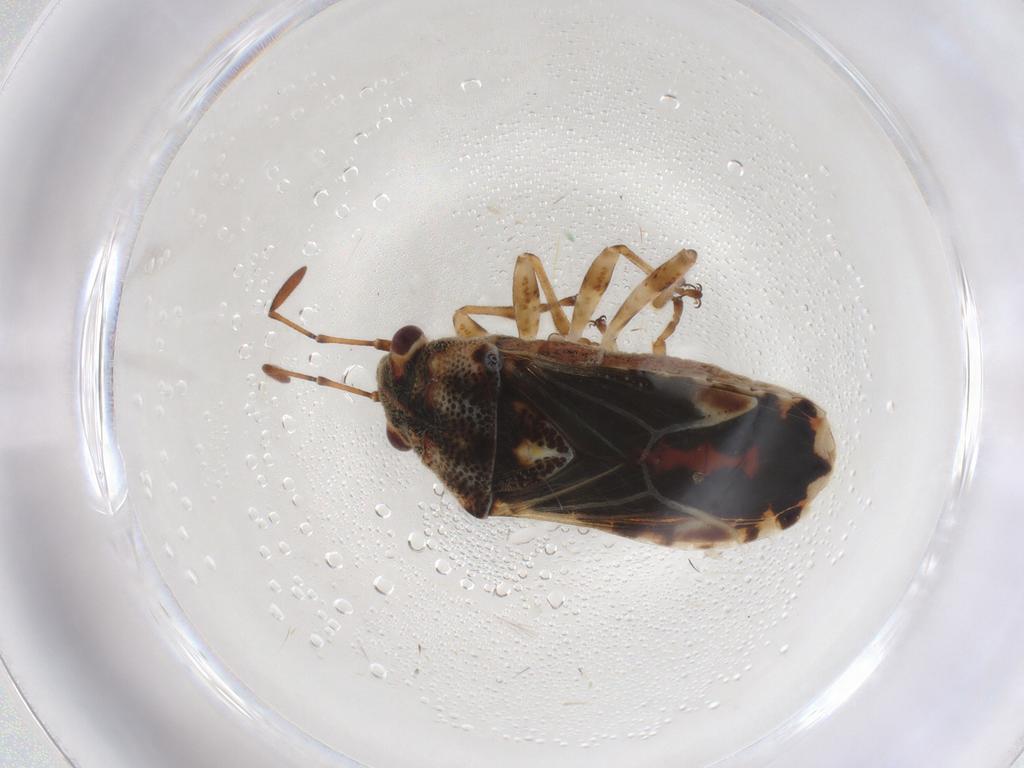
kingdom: Animalia
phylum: Arthropoda
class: Insecta
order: Hemiptera
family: Lygaeidae
